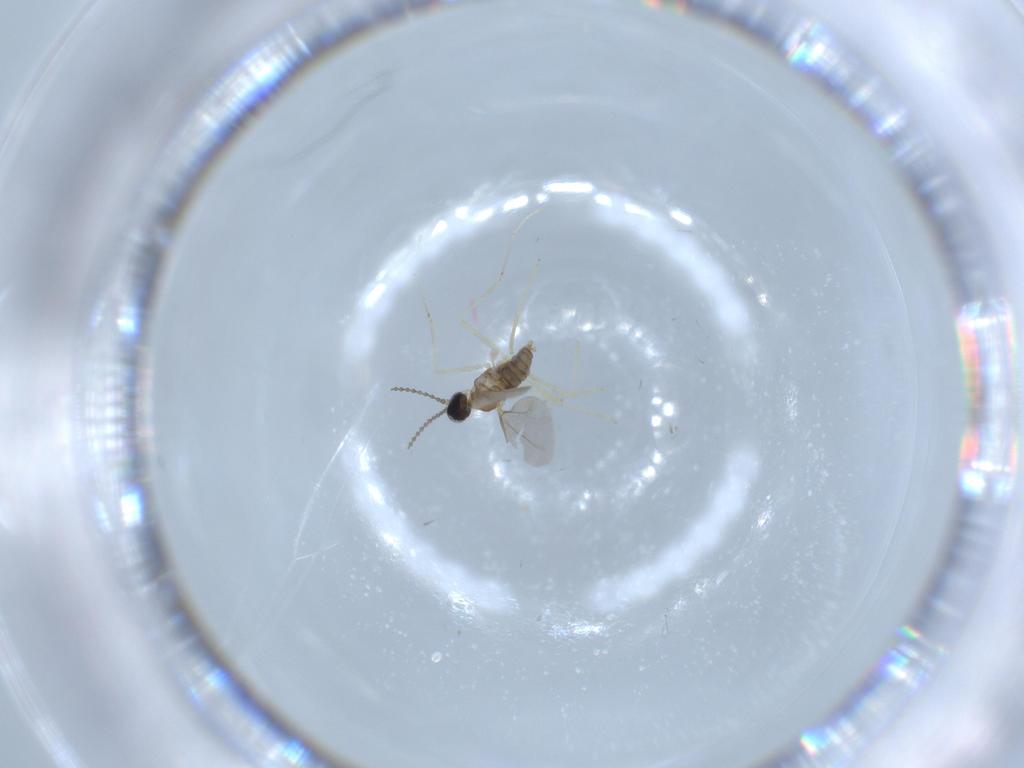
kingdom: Animalia
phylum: Arthropoda
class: Insecta
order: Diptera
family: Cecidomyiidae
